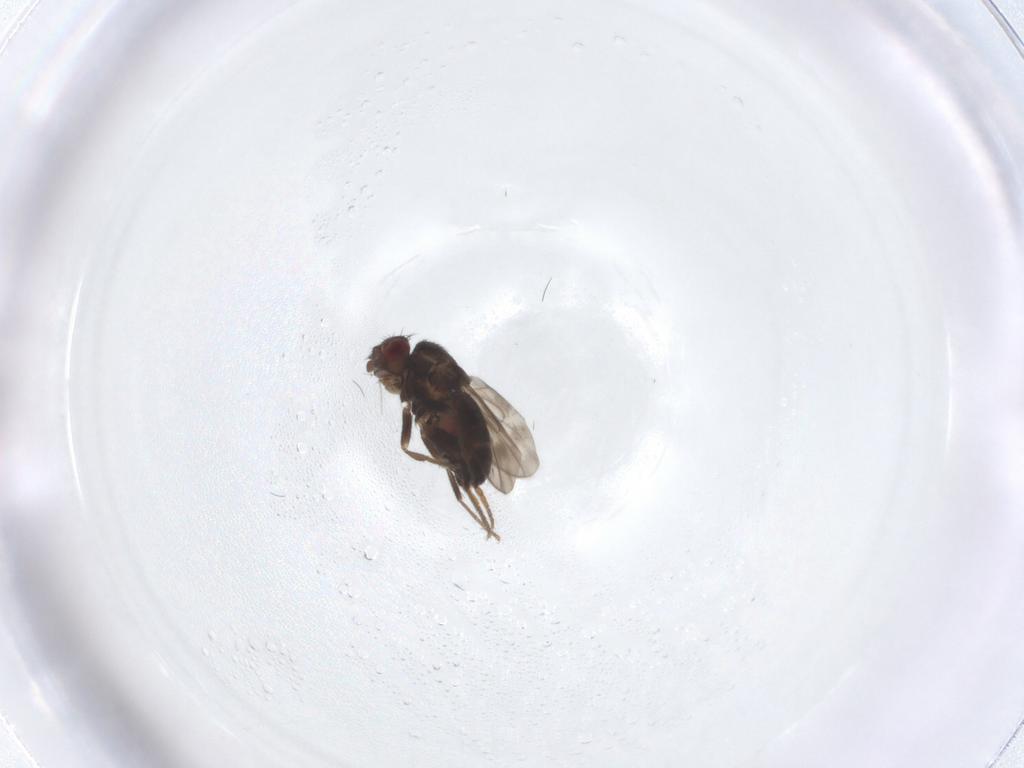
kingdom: Animalia
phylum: Arthropoda
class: Insecta
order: Diptera
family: Sphaeroceridae
